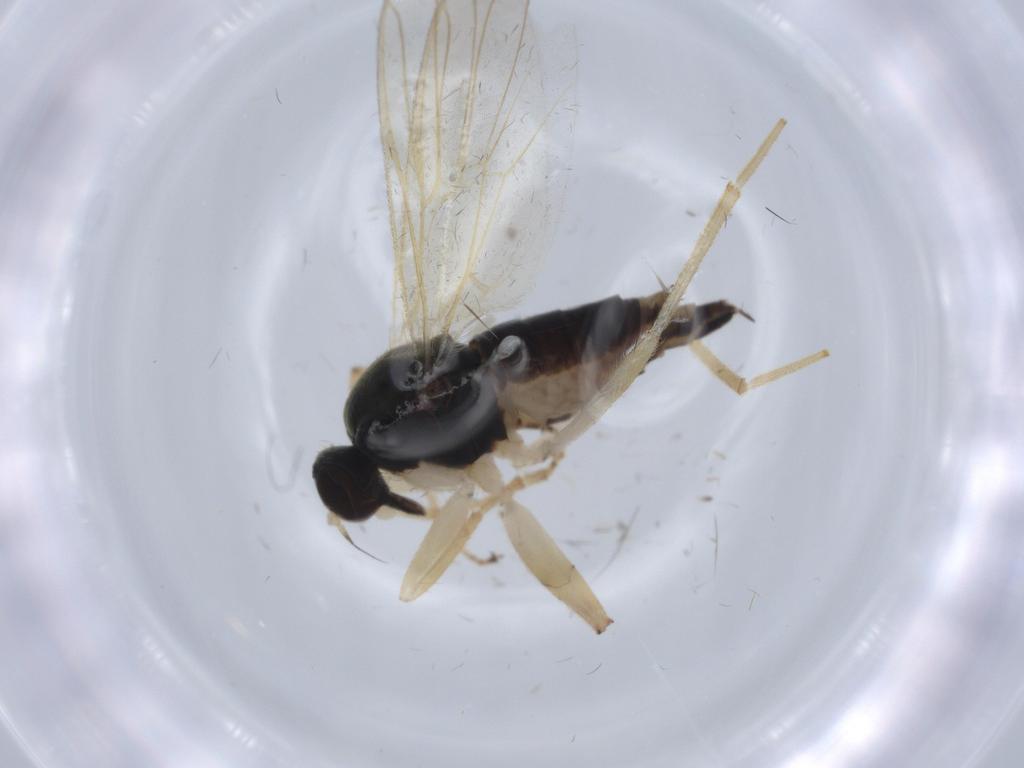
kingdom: Animalia
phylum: Arthropoda
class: Insecta
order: Diptera
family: Hybotidae
